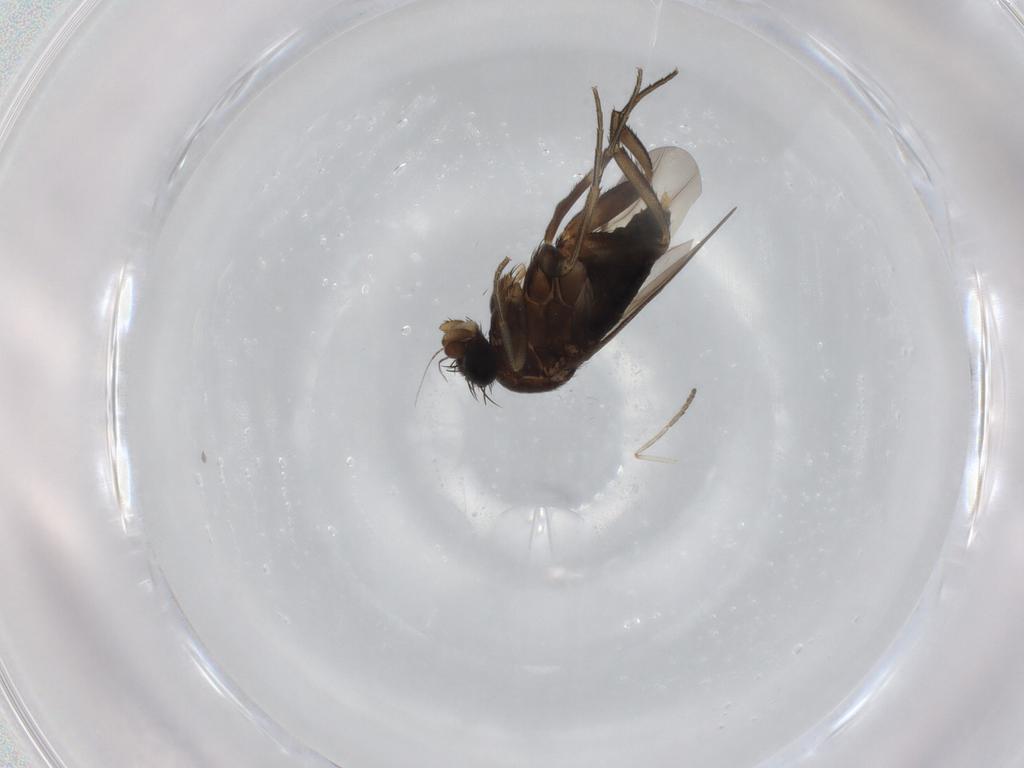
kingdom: Animalia
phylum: Arthropoda
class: Insecta
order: Diptera
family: Phoridae
